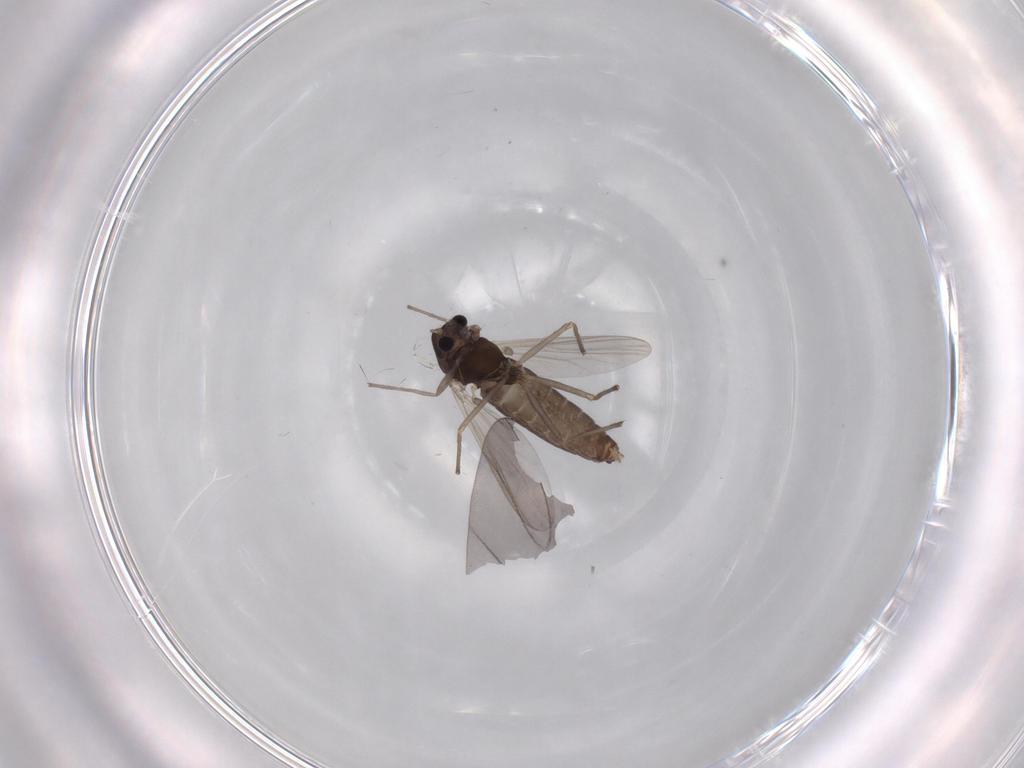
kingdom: Animalia
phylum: Arthropoda
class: Insecta
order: Diptera
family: Chironomidae
